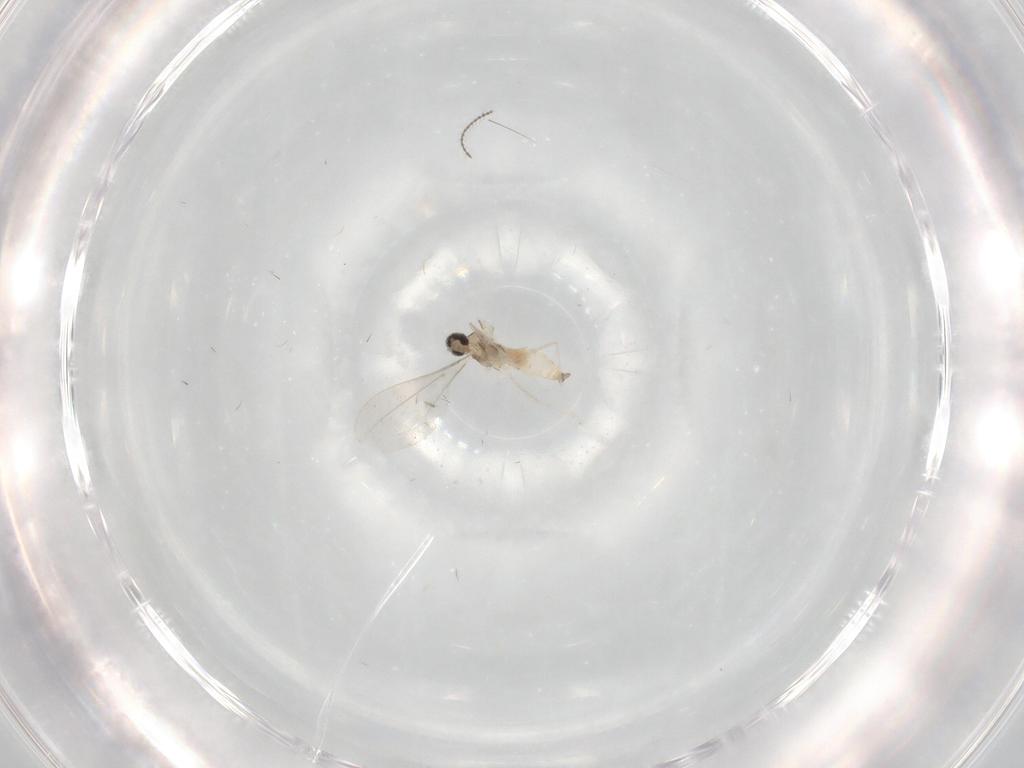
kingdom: Animalia
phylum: Arthropoda
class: Insecta
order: Diptera
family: Cecidomyiidae
